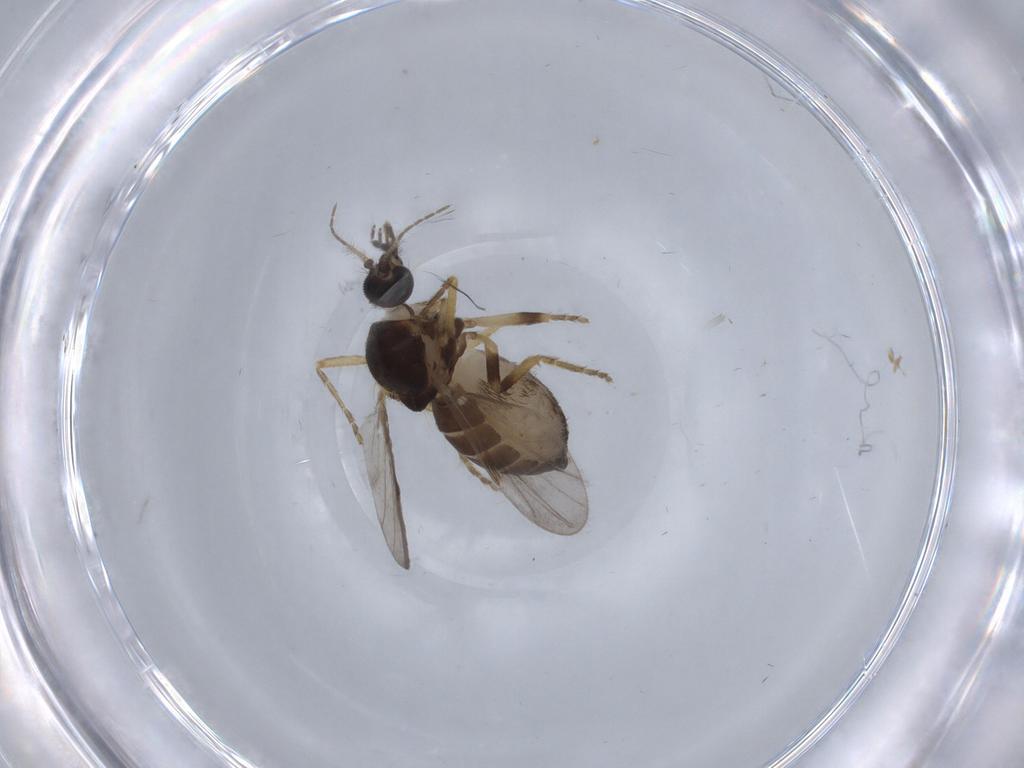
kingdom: Animalia
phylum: Arthropoda
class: Insecta
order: Diptera
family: Ceratopogonidae
